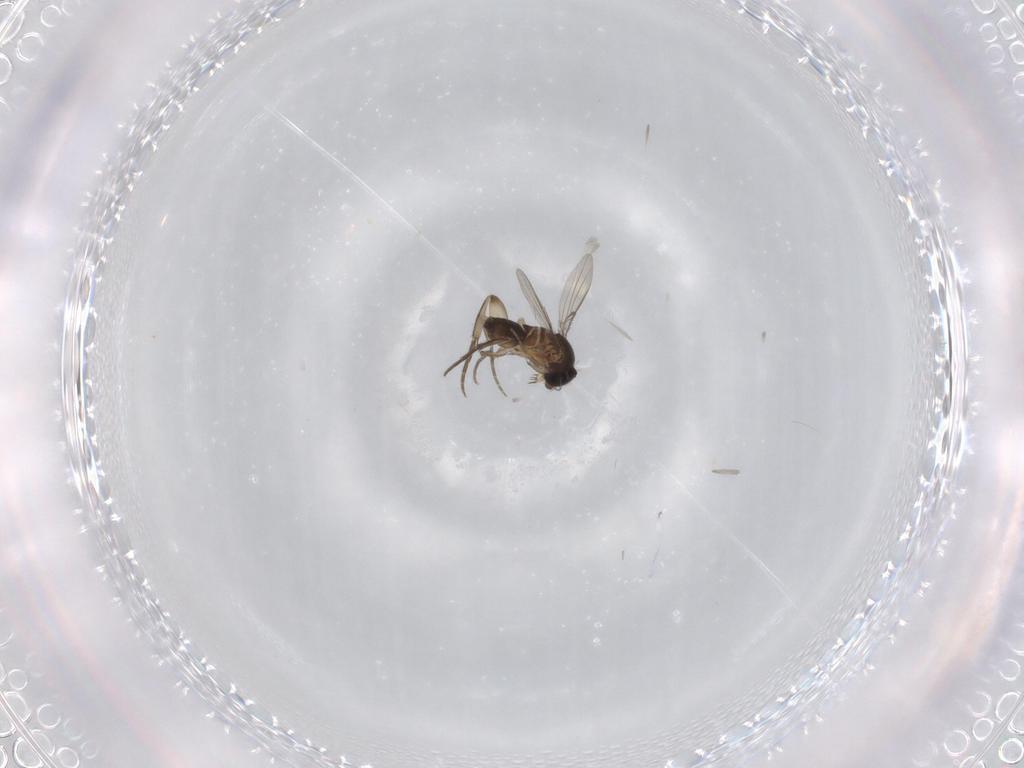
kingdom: Animalia
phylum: Arthropoda
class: Insecta
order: Diptera
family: Phoridae
